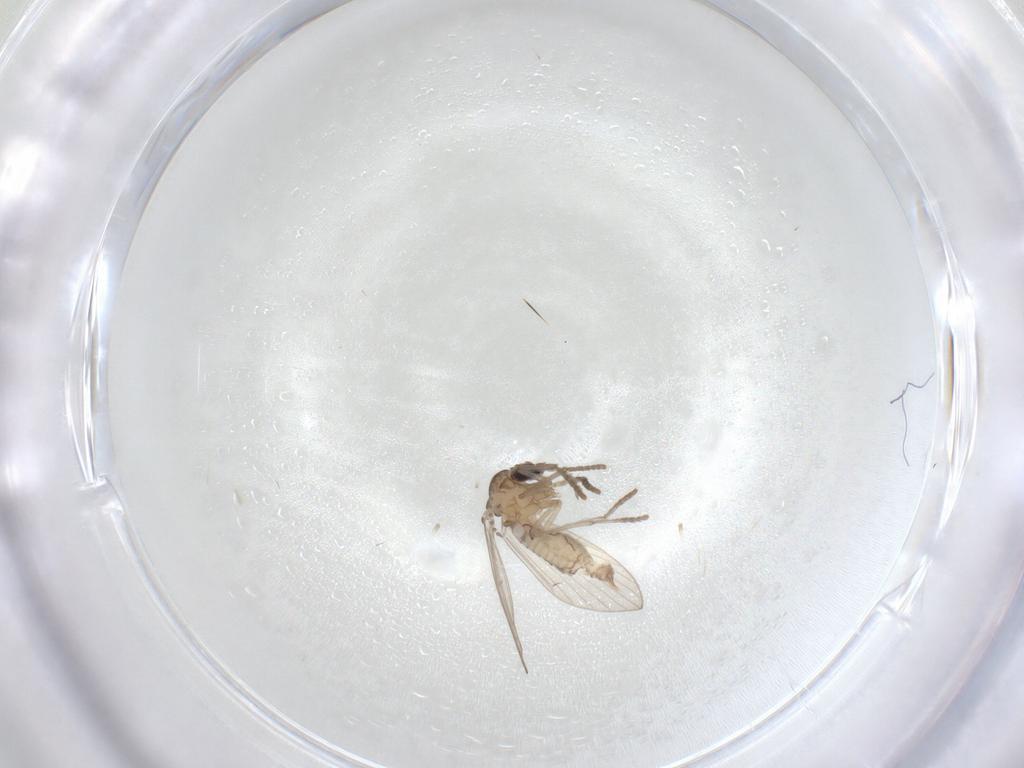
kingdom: Animalia
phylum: Arthropoda
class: Insecta
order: Diptera
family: Psychodidae
